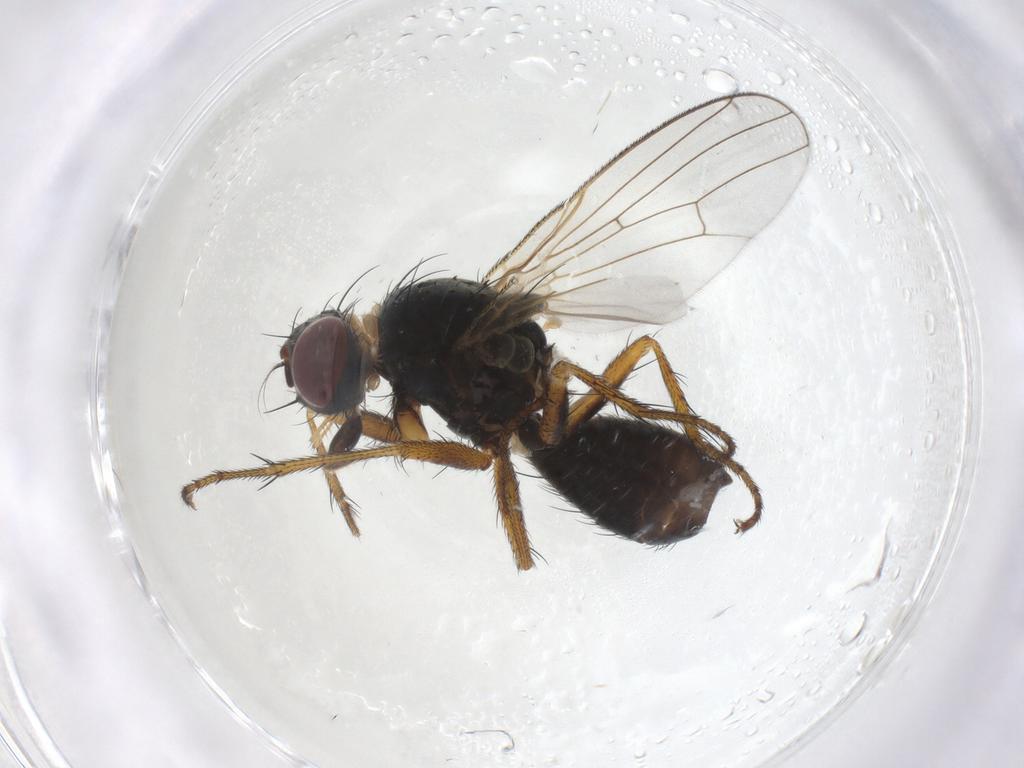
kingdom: Animalia
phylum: Arthropoda
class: Insecta
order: Diptera
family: Muscidae
